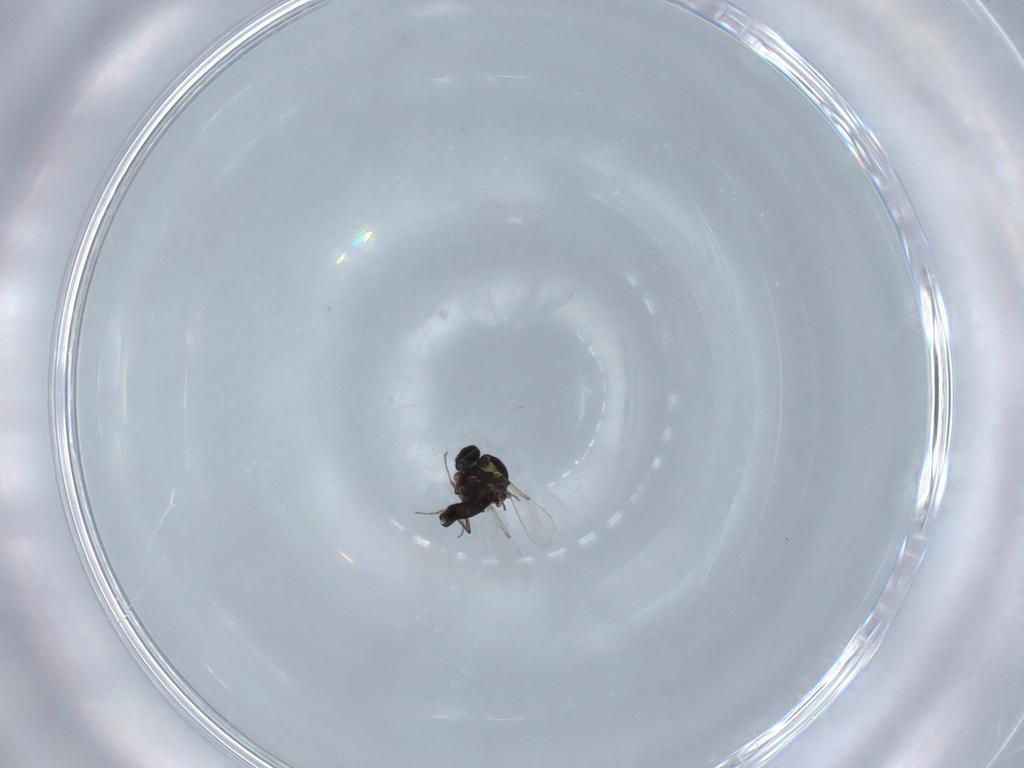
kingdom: Animalia
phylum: Arthropoda
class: Insecta
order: Diptera
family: Ceratopogonidae
